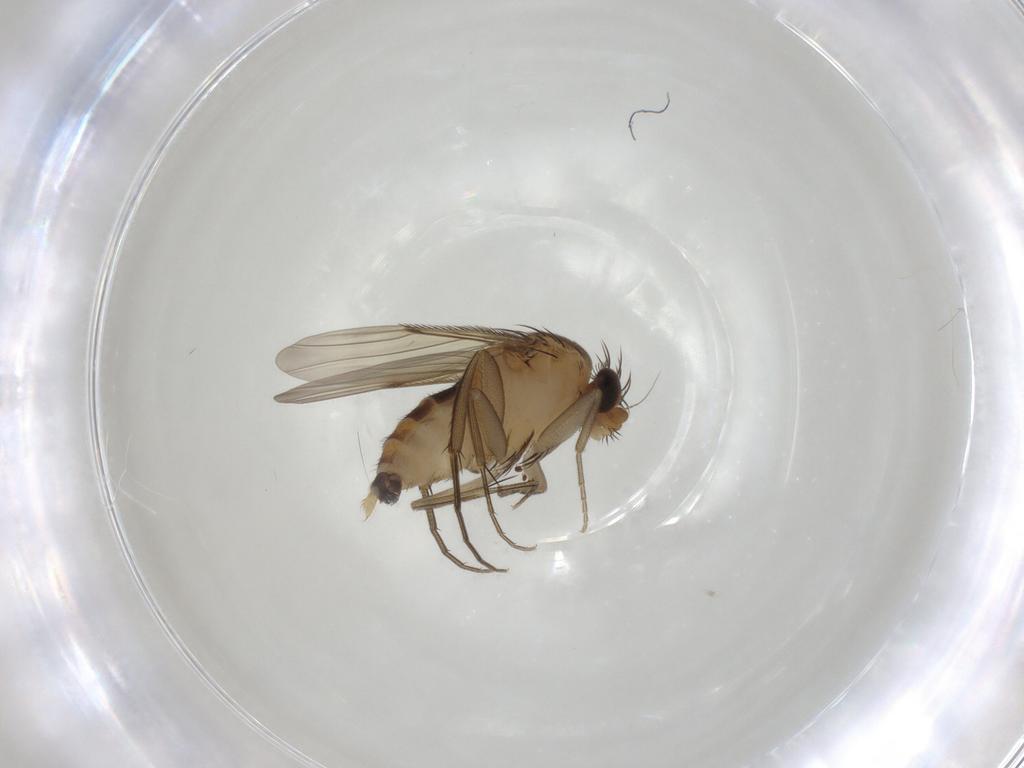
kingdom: Animalia
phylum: Arthropoda
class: Insecta
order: Diptera
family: Phoridae
